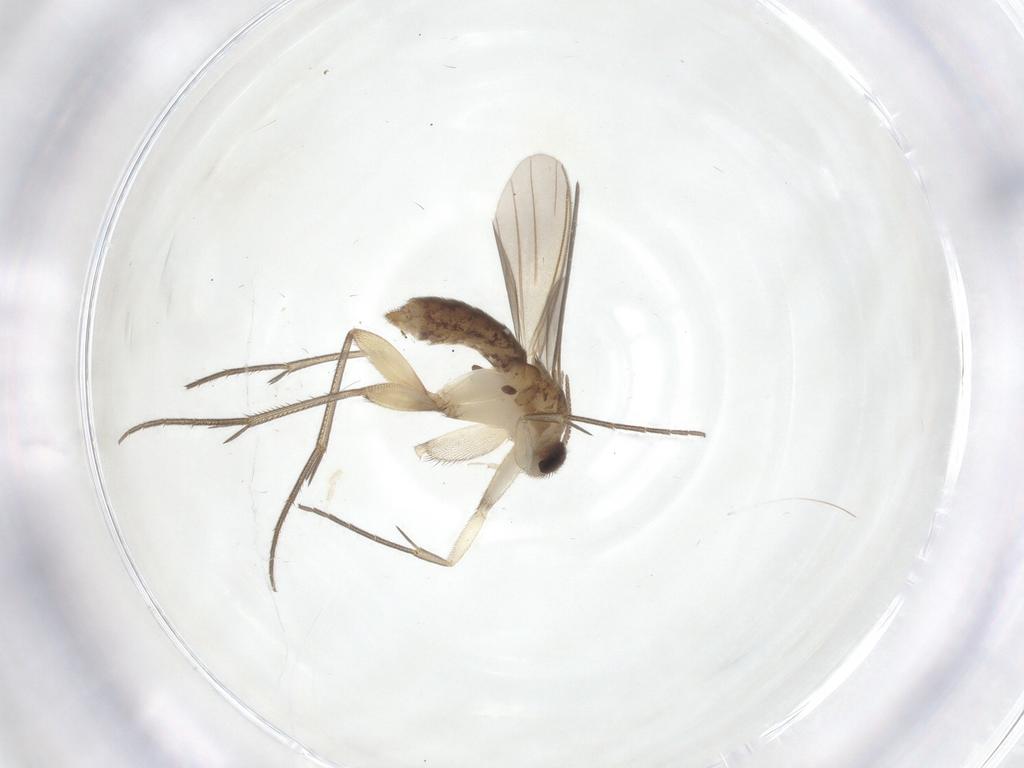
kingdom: Animalia
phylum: Arthropoda
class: Insecta
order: Diptera
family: Mycetophilidae
